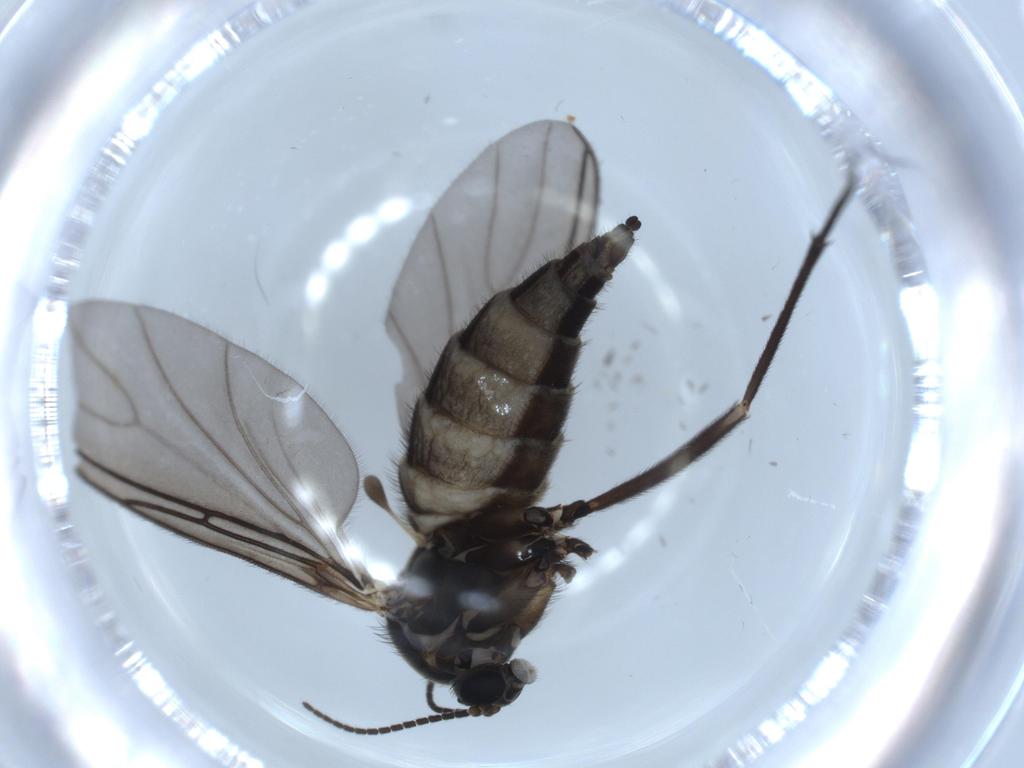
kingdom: Animalia
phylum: Arthropoda
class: Insecta
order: Diptera
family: Sciaridae
